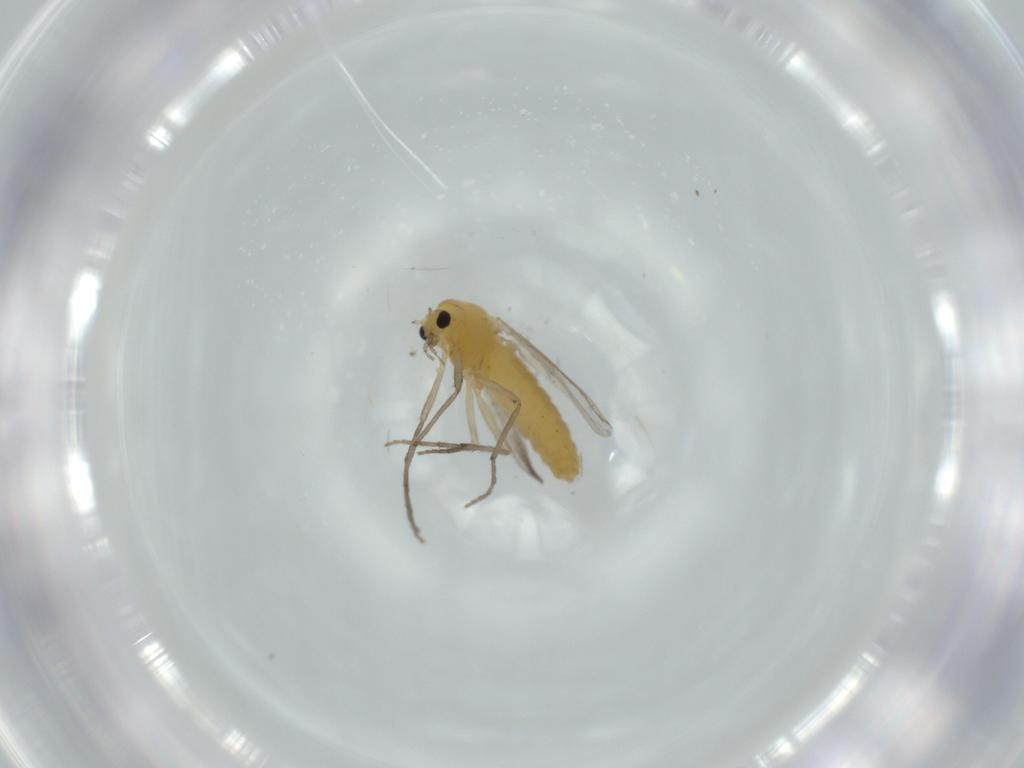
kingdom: Animalia
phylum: Arthropoda
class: Insecta
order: Diptera
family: Chironomidae
